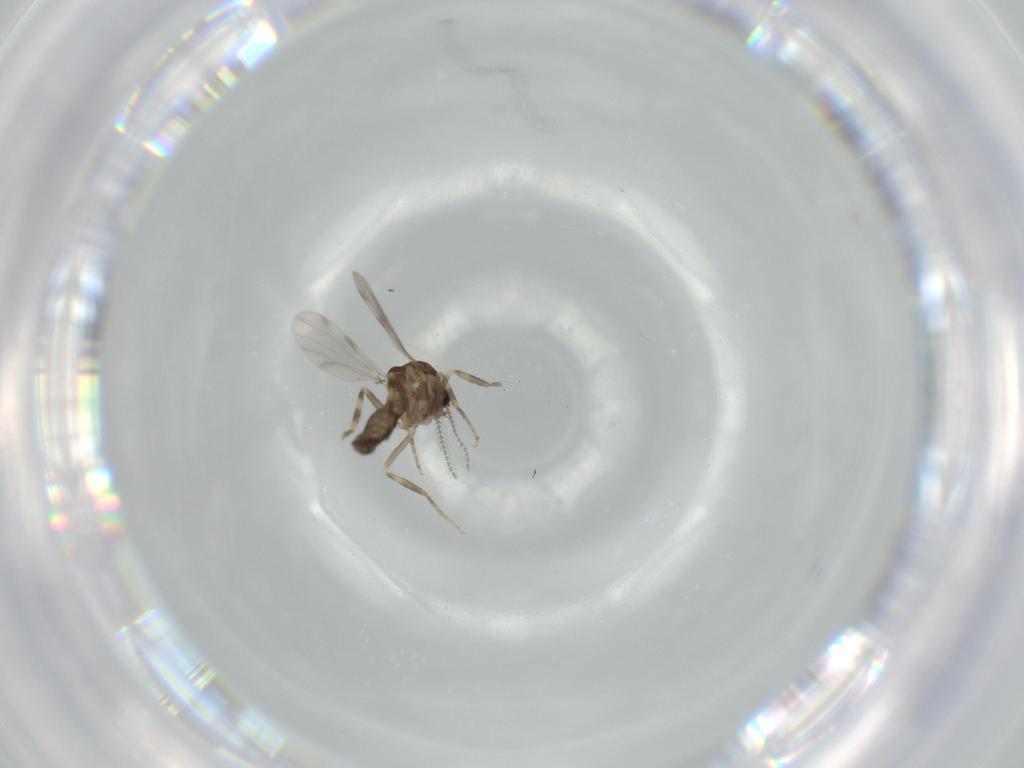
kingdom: Animalia
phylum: Arthropoda
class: Insecta
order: Diptera
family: Ceratopogonidae
